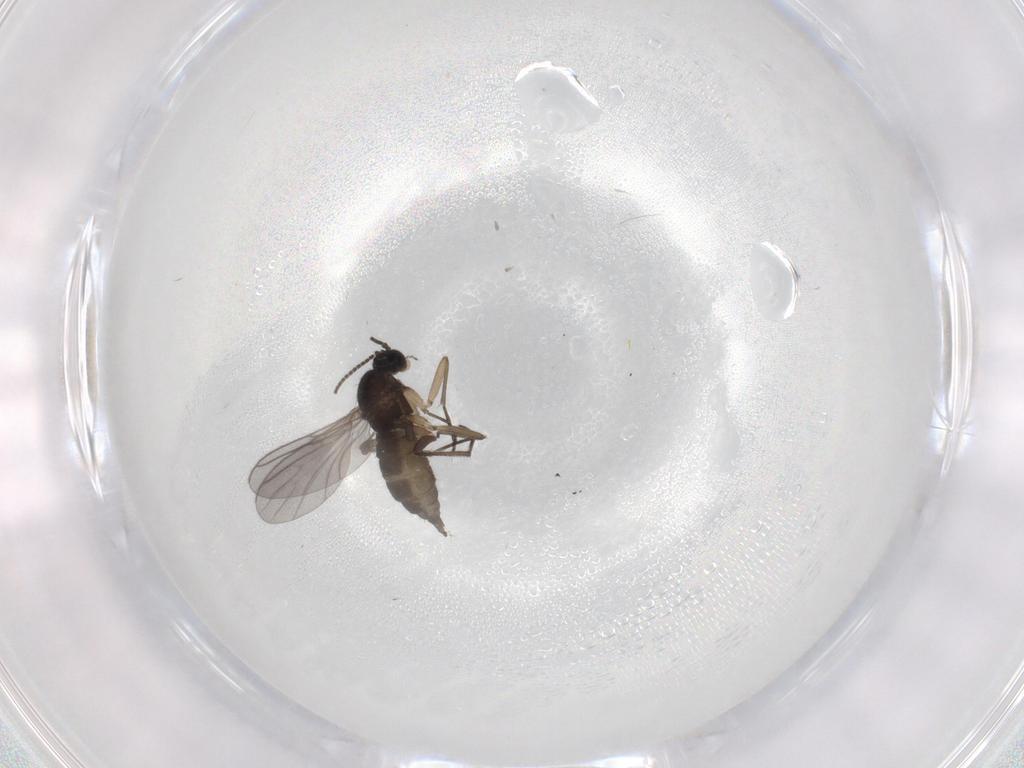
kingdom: Animalia
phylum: Arthropoda
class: Insecta
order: Diptera
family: Sciaridae
